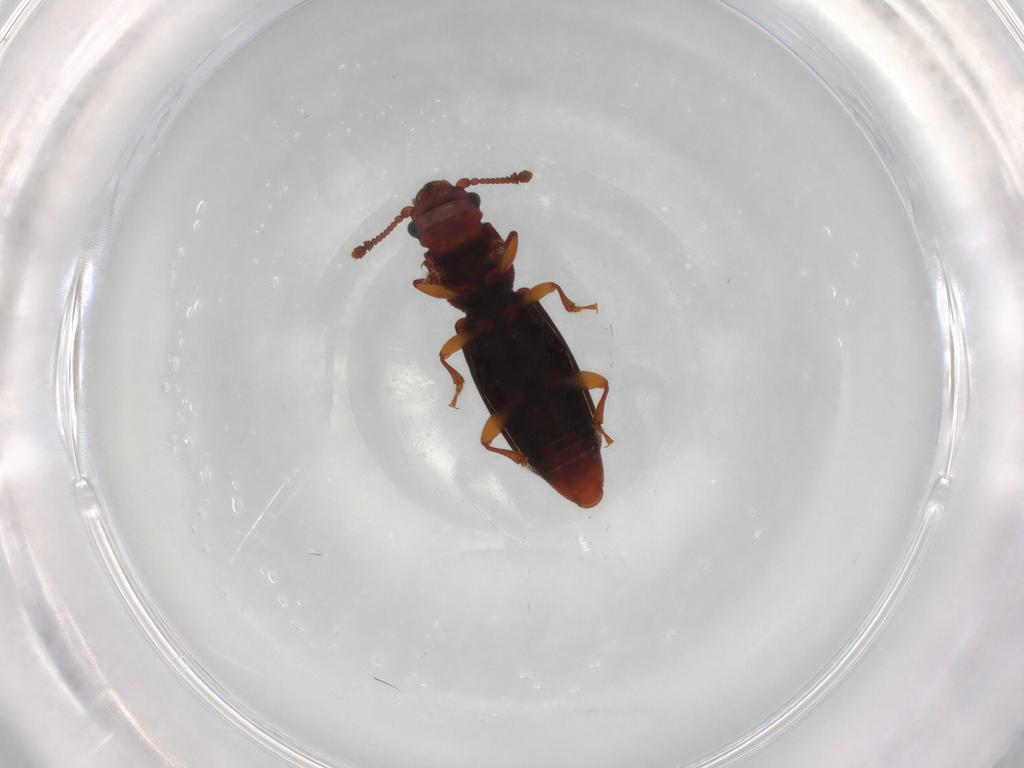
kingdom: Animalia
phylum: Arthropoda
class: Insecta
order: Coleoptera
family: Monotomidae
